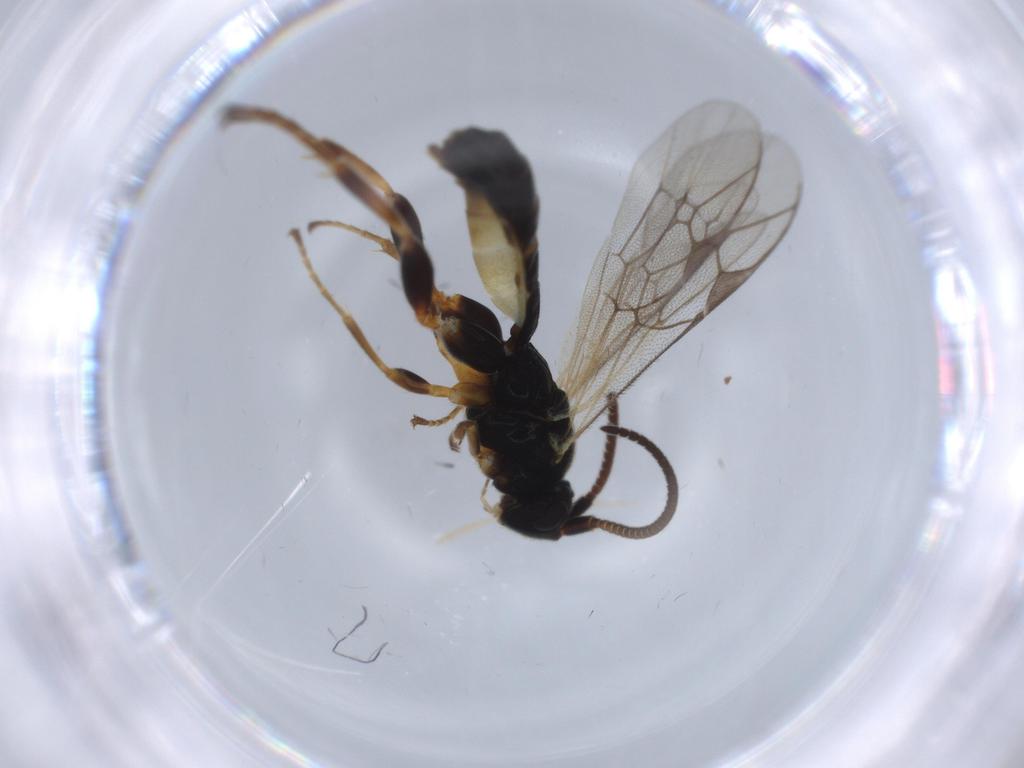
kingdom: Animalia
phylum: Arthropoda
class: Insecta
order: Hymenoptera
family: Ichneumonidae
